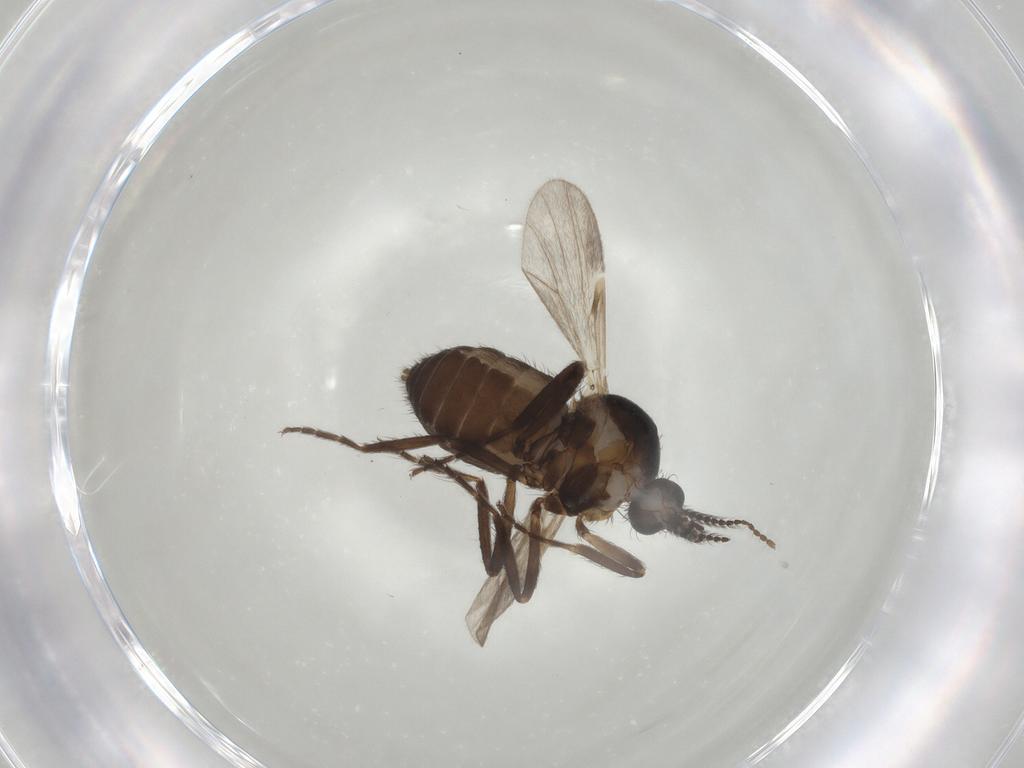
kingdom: Animalia
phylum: Arthropoda
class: Insecta
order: Diptera
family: Ceratopogonidae
